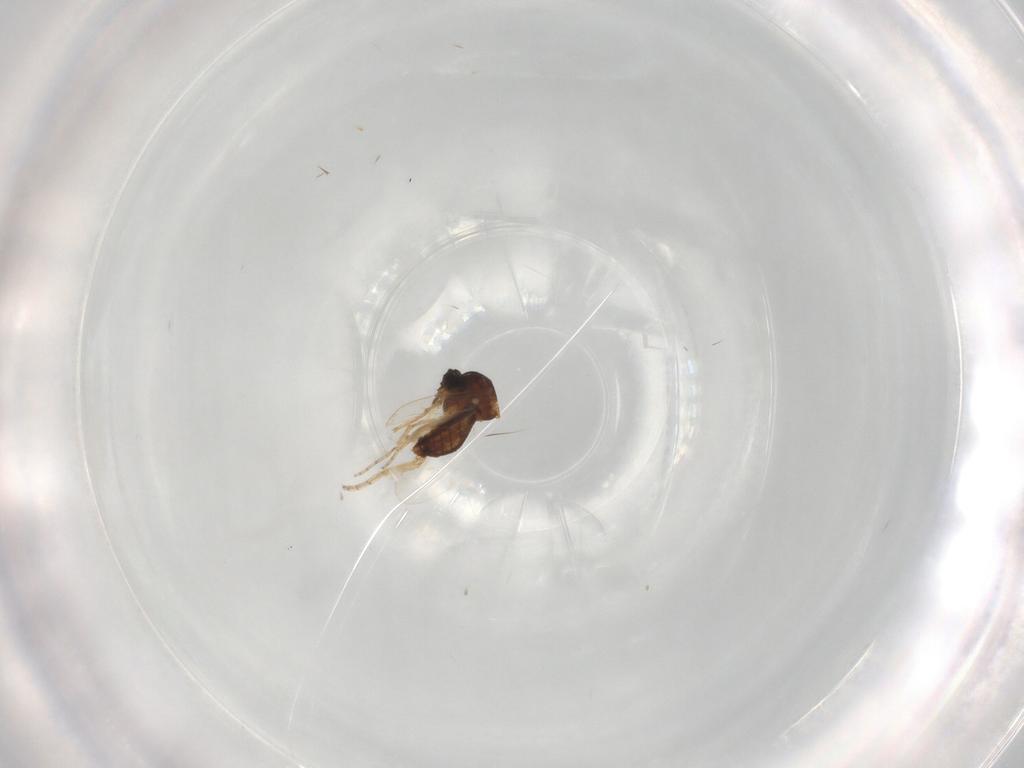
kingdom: Animalia
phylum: Arthropoda
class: Insecta
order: Diptera
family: Ceratopogonidae
